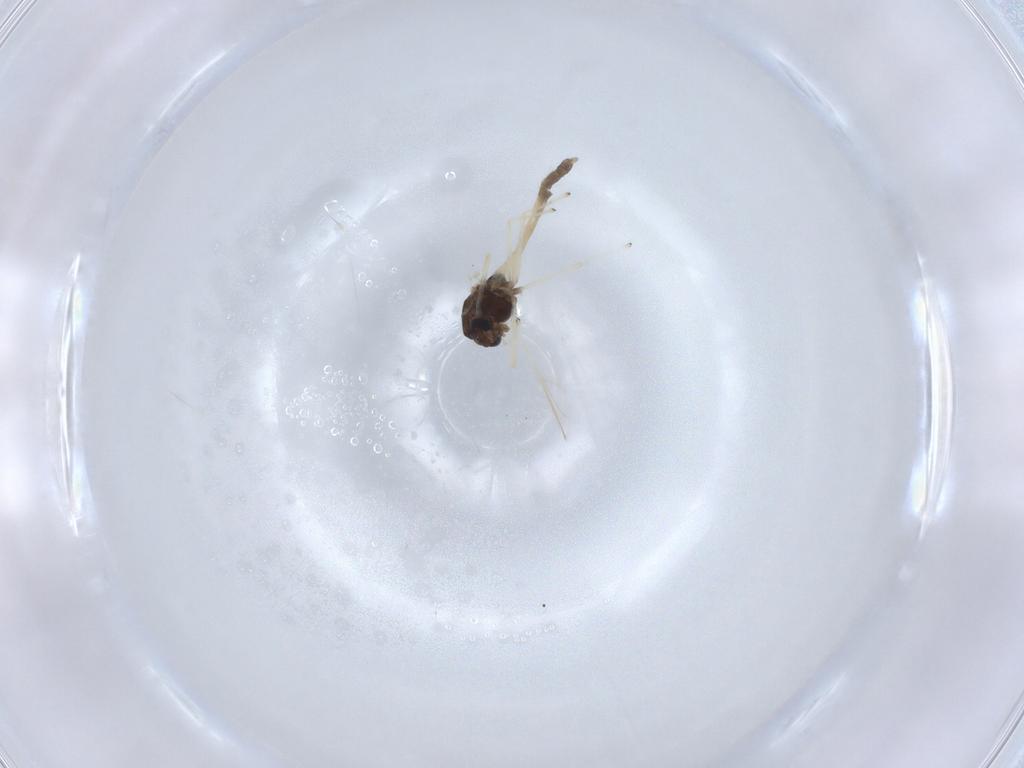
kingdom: Animalia
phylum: Arthropoda
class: Insecta
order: Diptera
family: Chironomidae
